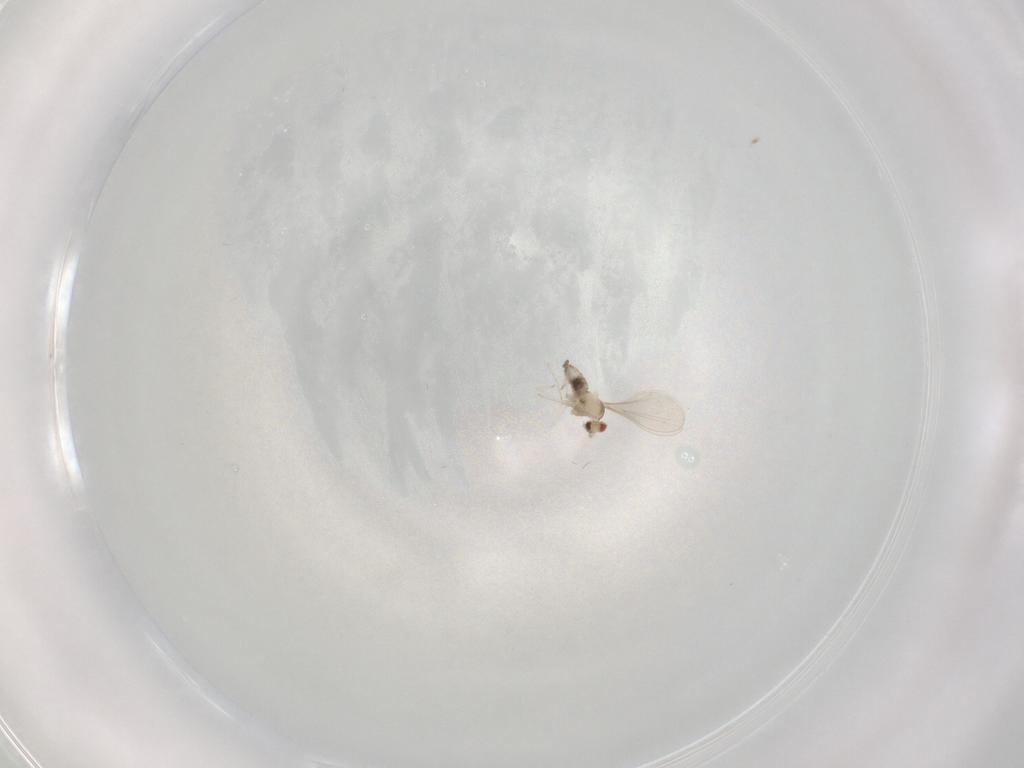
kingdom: Animalia
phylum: Arthropoda
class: Insecta
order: Diptera
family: Cecidomyiidae
